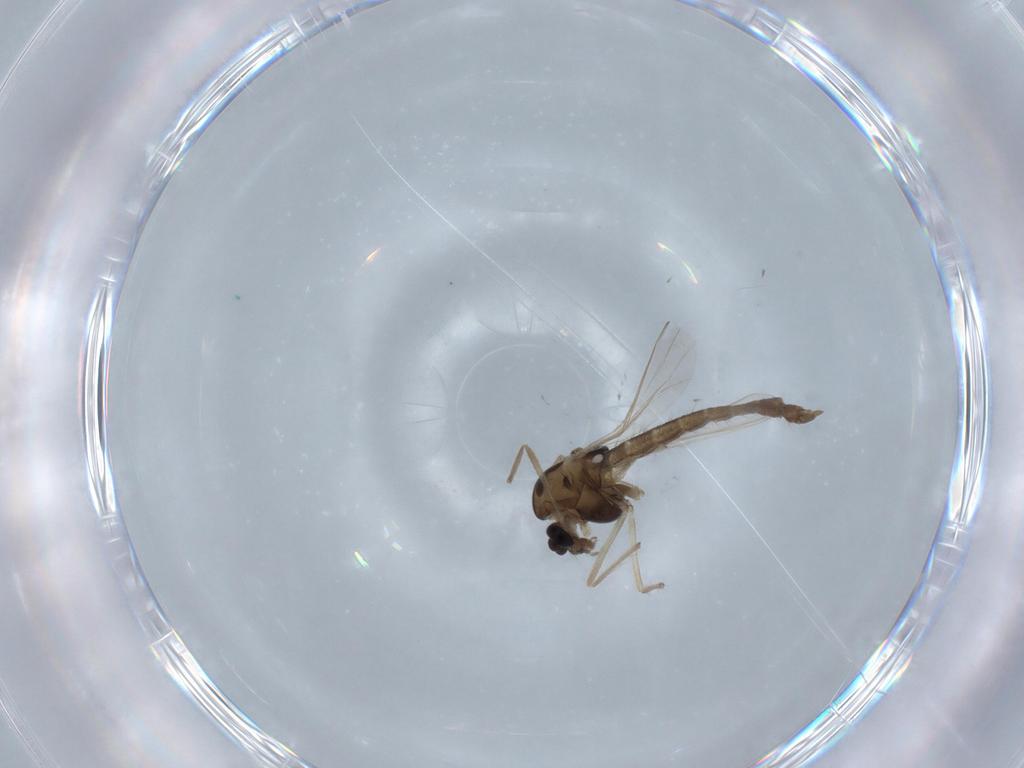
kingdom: Animalia
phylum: Arthropoda
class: Insecta
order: Diptera
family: Chironomidae
